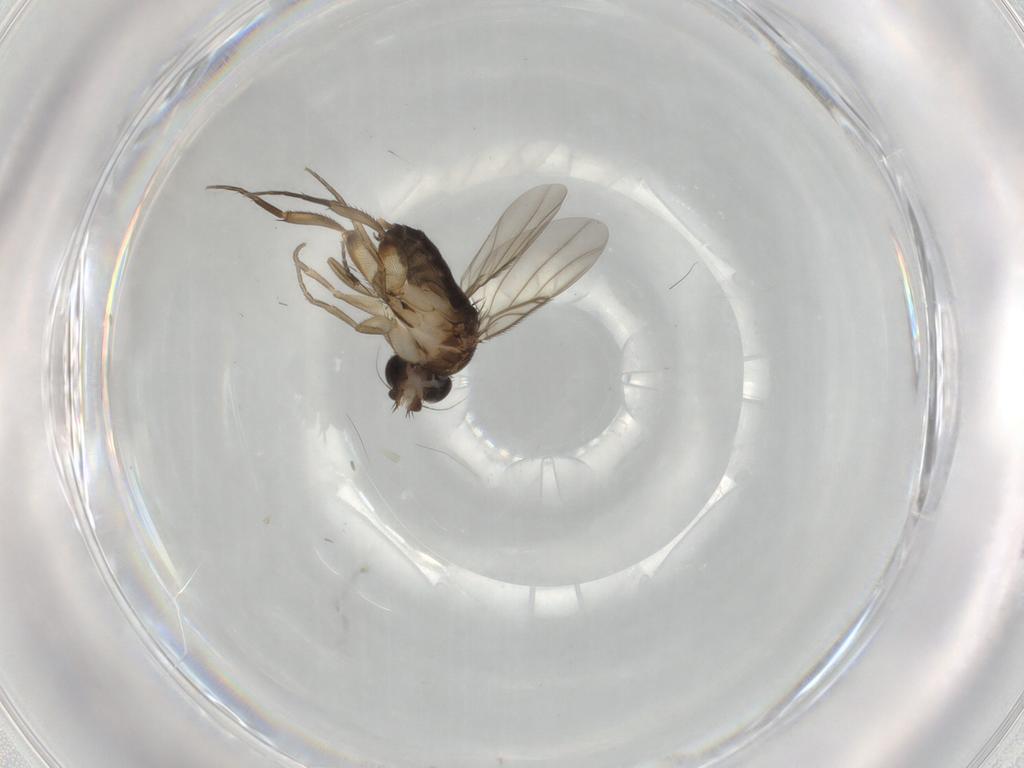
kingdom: Animalia
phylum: Arthropoda
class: Insecta
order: Diptera
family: Phoridae
